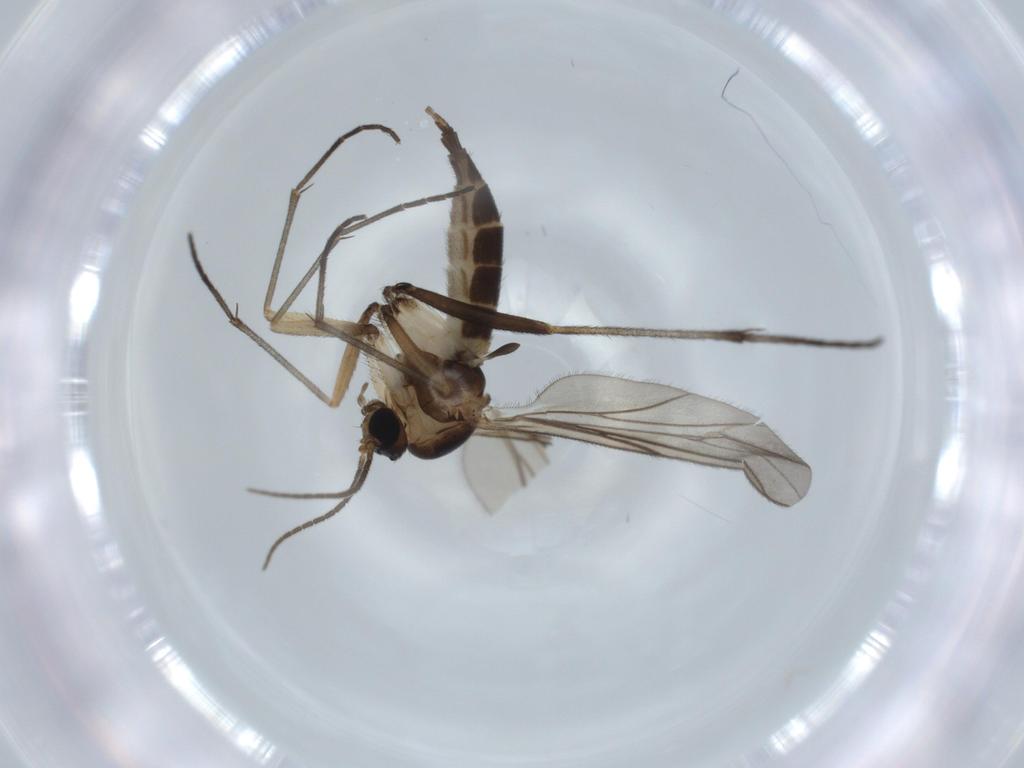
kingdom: Animalia
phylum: Arthropoda
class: Insecta
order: Diptera
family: Sciaridae
